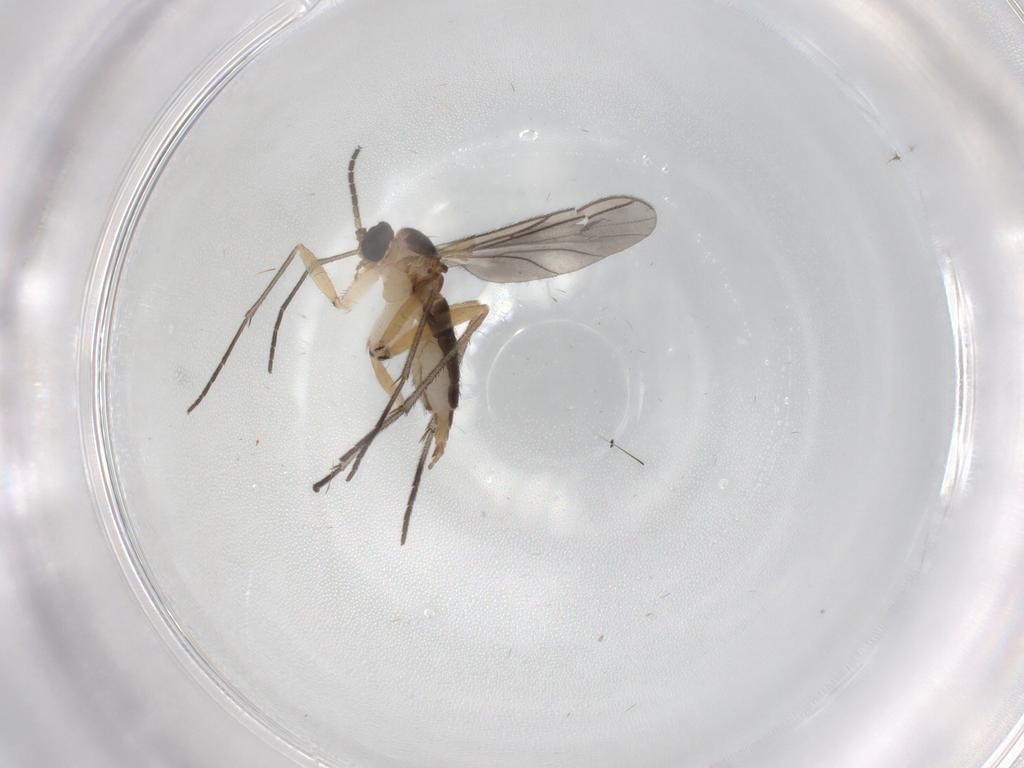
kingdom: Animalia
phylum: Arthropoda
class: Insecta
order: Diptera
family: Sciaridae
